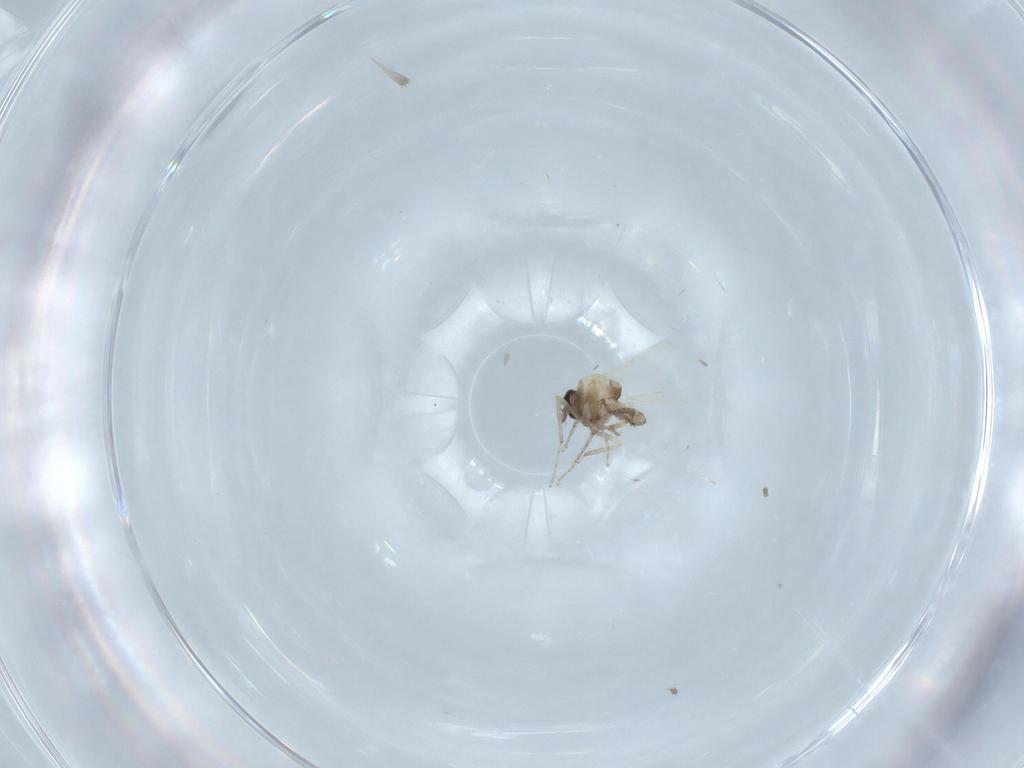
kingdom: Animalia
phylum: Arthropoda
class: Insecta
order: Diptera
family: Ceratopogonidae
